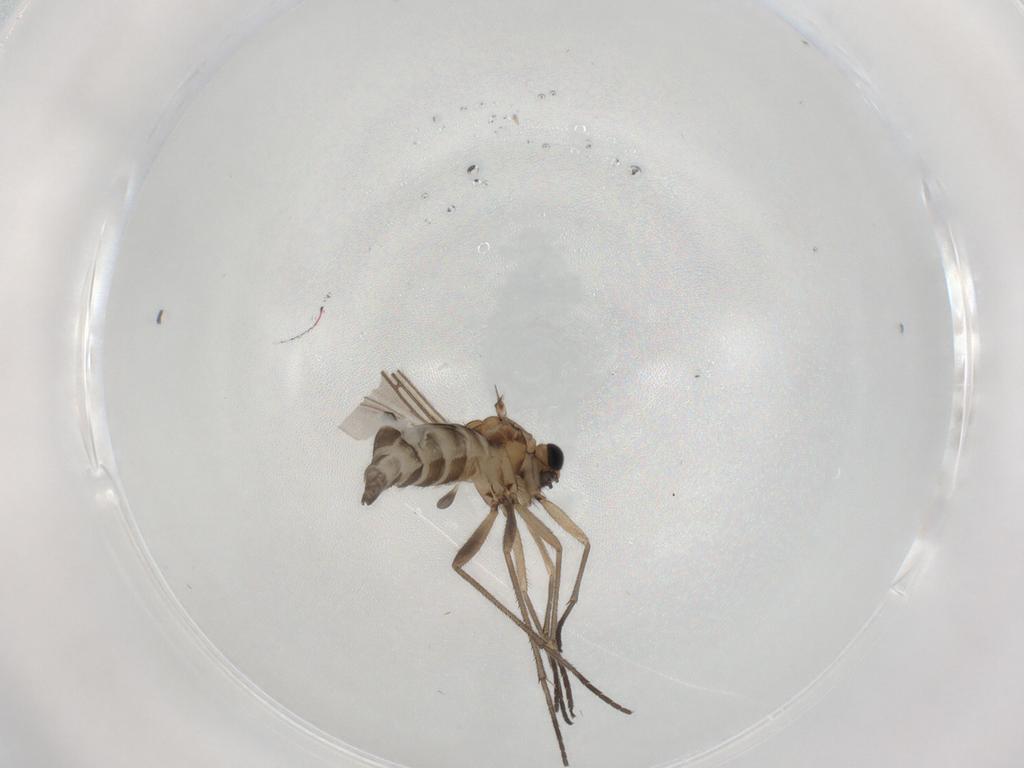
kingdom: Animalia
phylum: Arthropoda
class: Insecta
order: Diptera
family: Sciaridae
